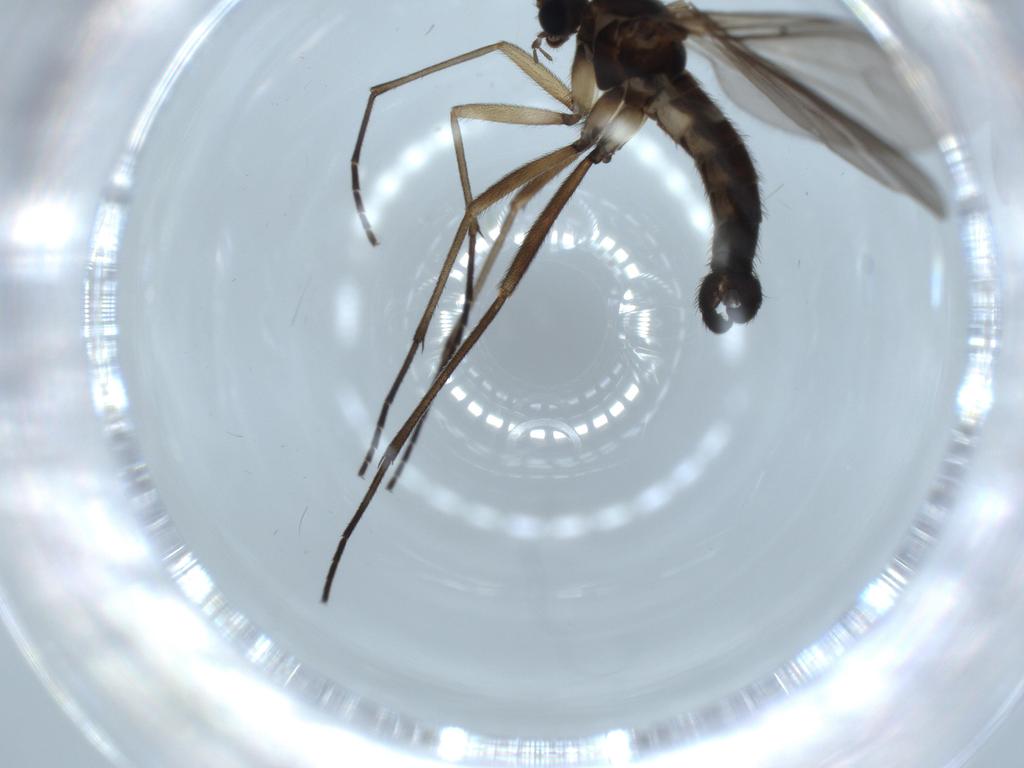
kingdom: Animalia
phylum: Arthropoda
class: Insecta
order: Diptera
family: Sciaridae
